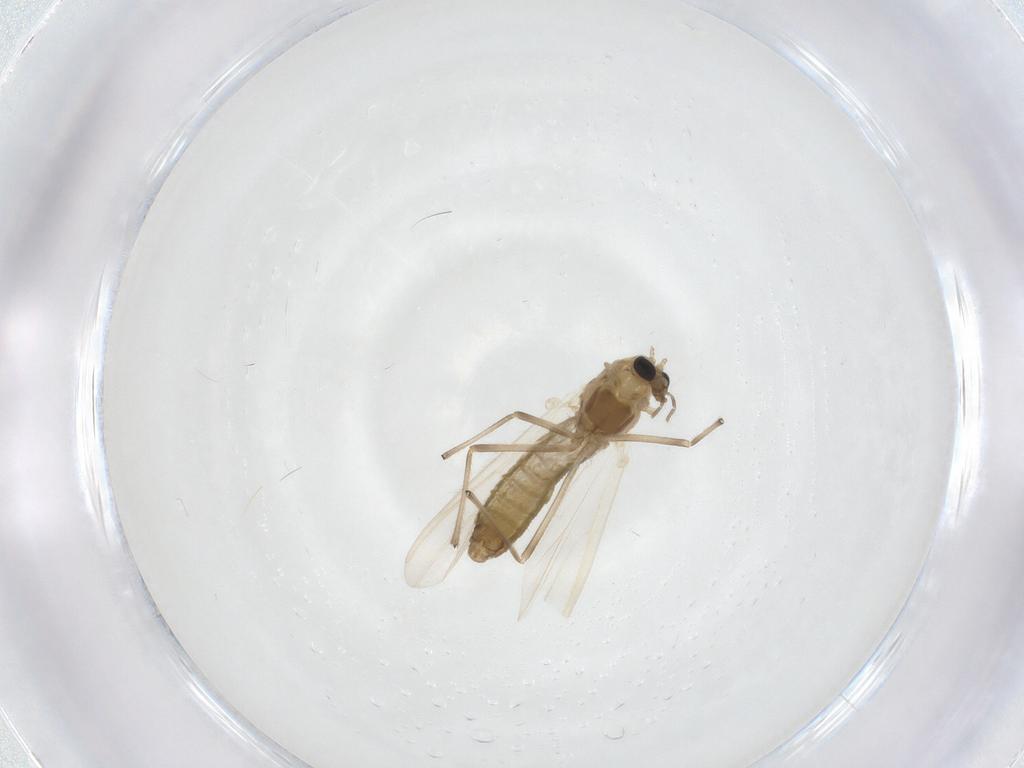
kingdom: Animalia
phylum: Arthropoda
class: Insecta
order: Diptera
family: Chironomidae
